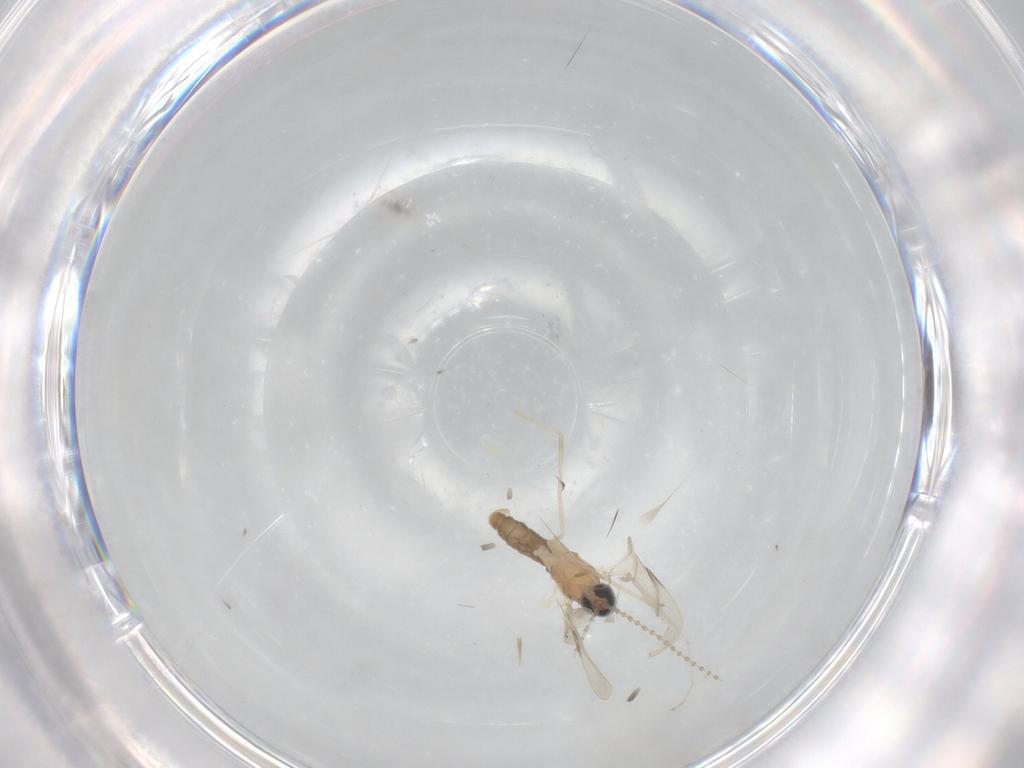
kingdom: Animalia
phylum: Arthropoda
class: Insecta
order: Diptera
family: Cecidomyiidae
